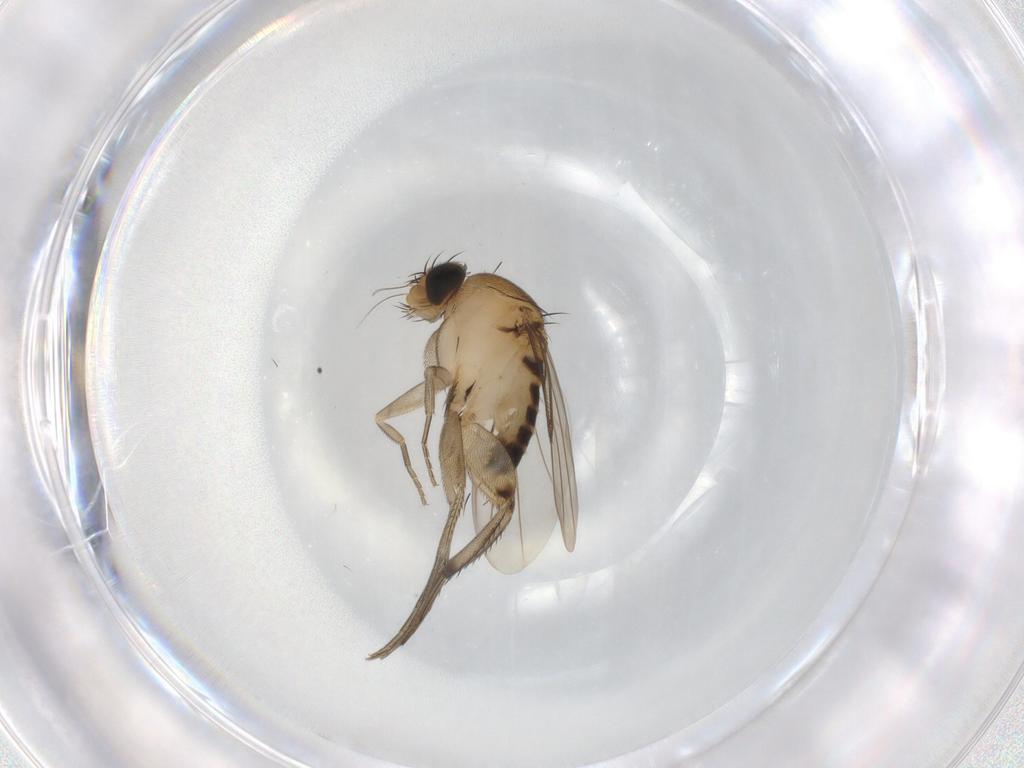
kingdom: Animalia
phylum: Arthropoda
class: Insecta
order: Diptera
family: Phoridae
